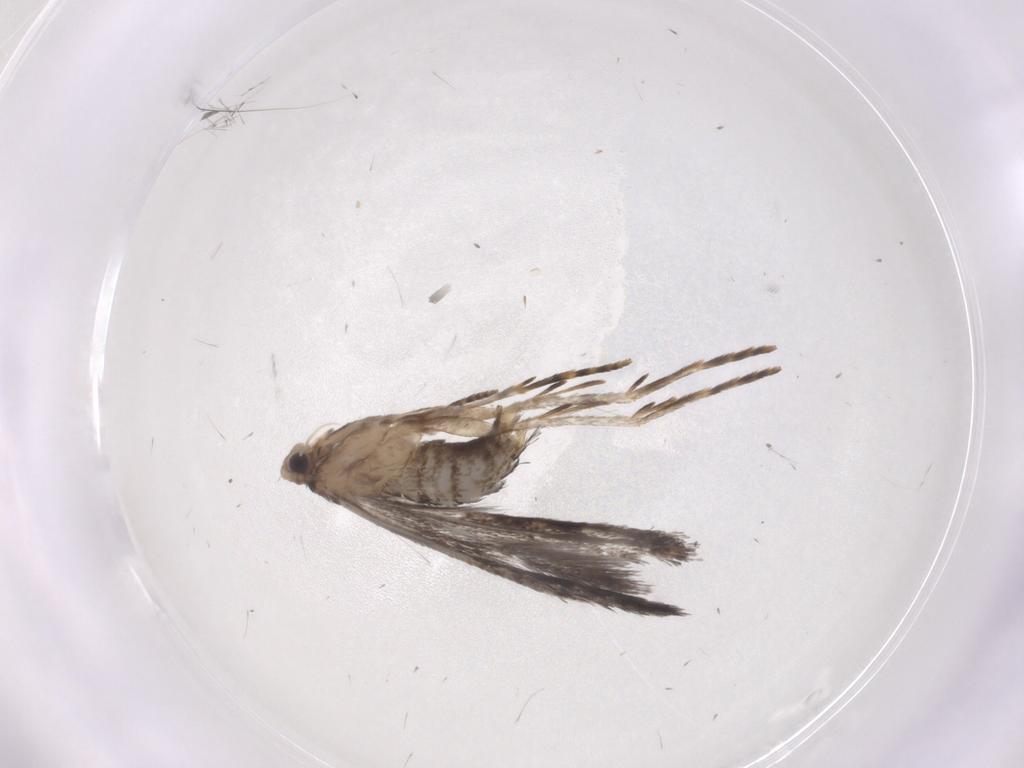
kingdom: Animalia
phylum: Arthropoda
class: Insecta
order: Lepidoptera
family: Tineidae
